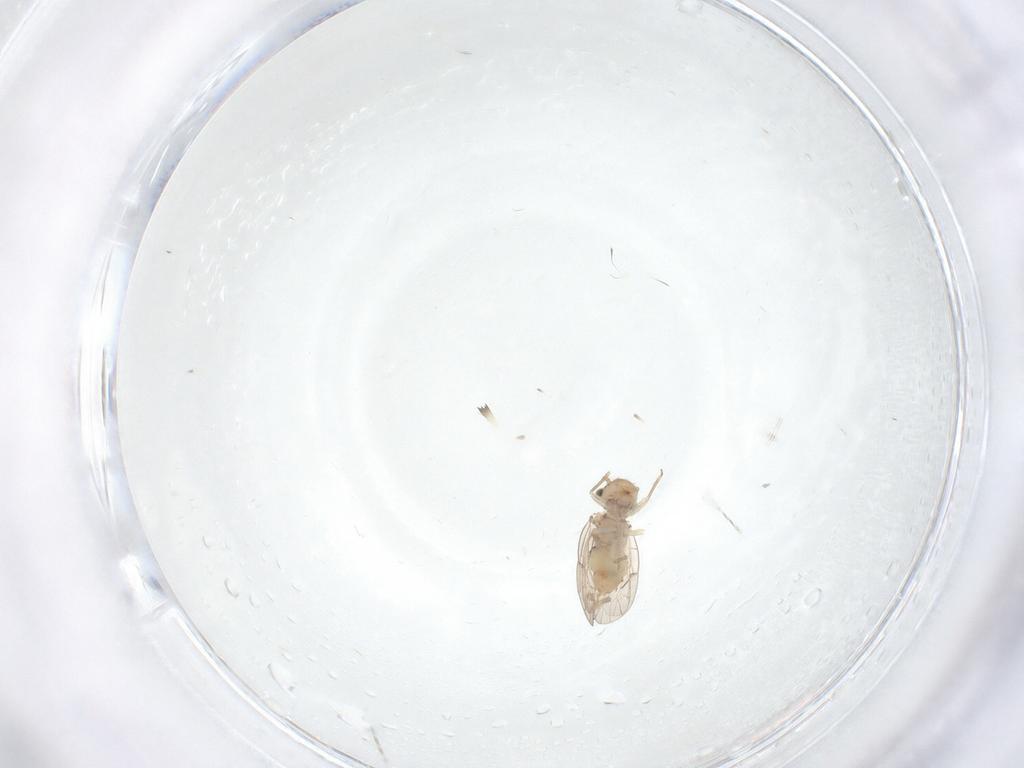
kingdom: Animalia
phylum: Arthropoda
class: Insecta
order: Psocodea
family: Ectopsocidae
